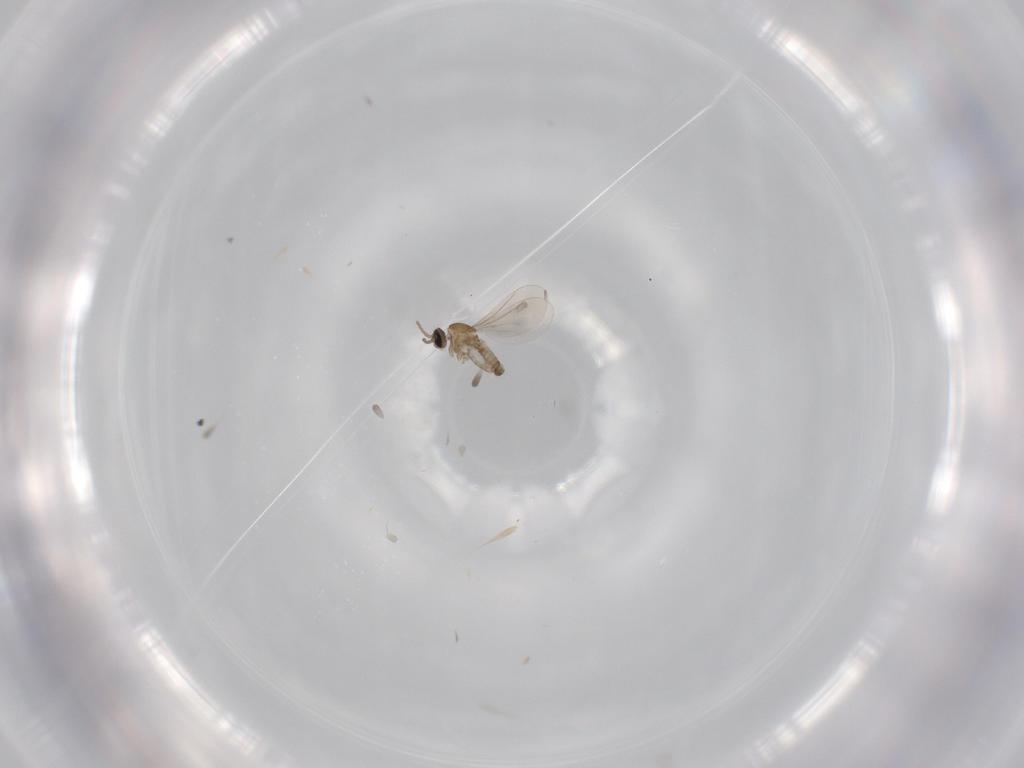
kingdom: Animalia
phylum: Arthropoda
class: Insecta
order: Diptera
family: Cecidomyiidae
